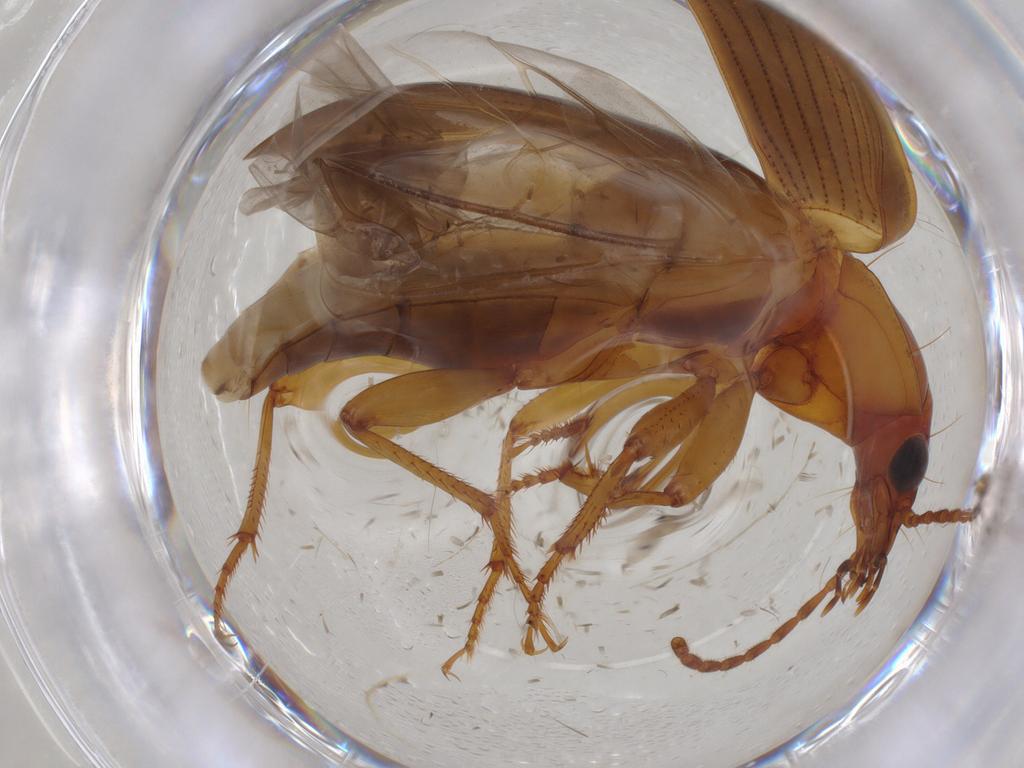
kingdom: Animalia
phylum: Arthropoda
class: Insecta
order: Coleoptera
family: Carabidae
